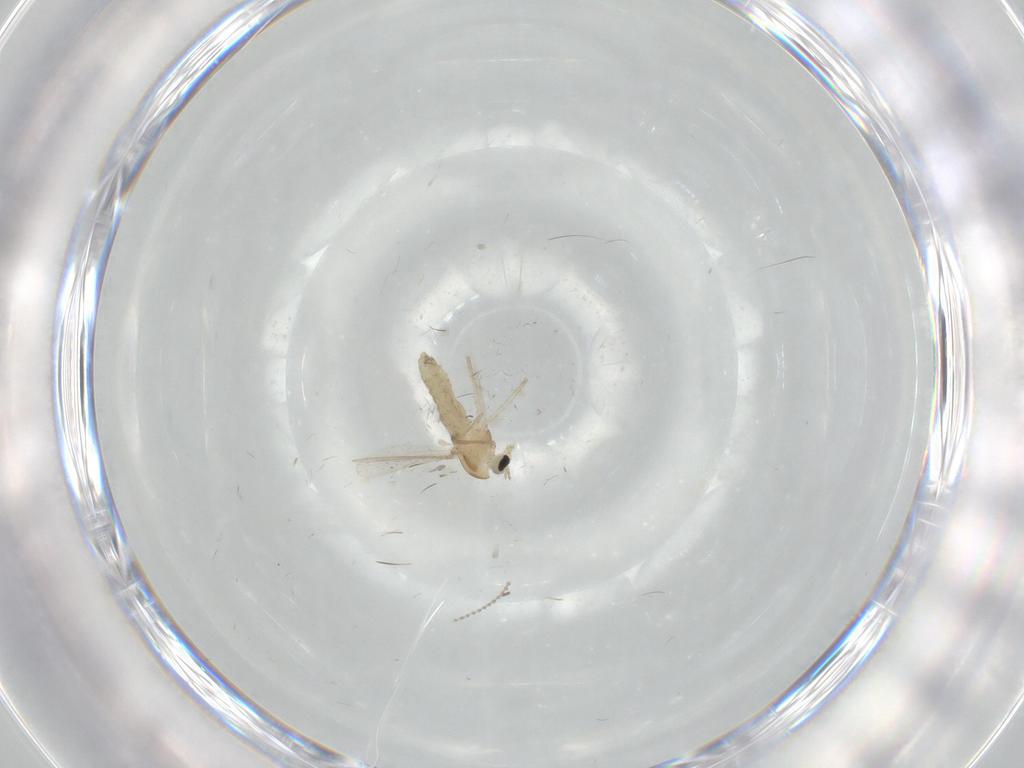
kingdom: Animalia
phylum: Arthropoda
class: Insecta
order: Diptera
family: Chironomidae
